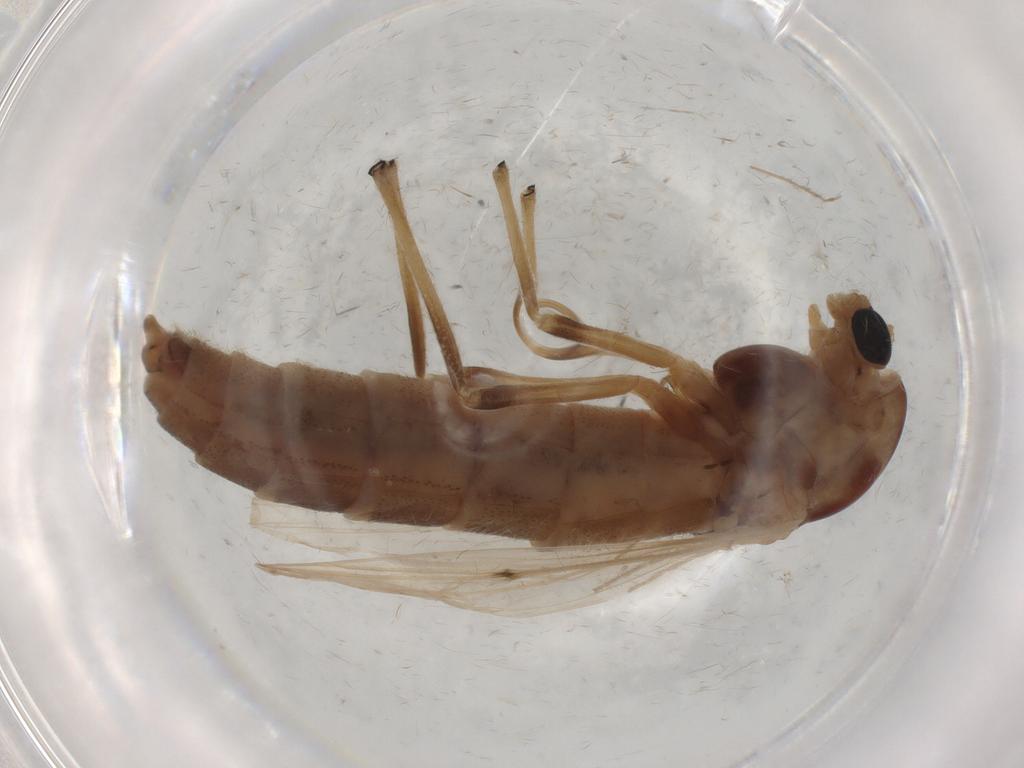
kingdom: Animalia
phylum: Arthropoda
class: Insecta
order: Diptera
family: Chironomidae
